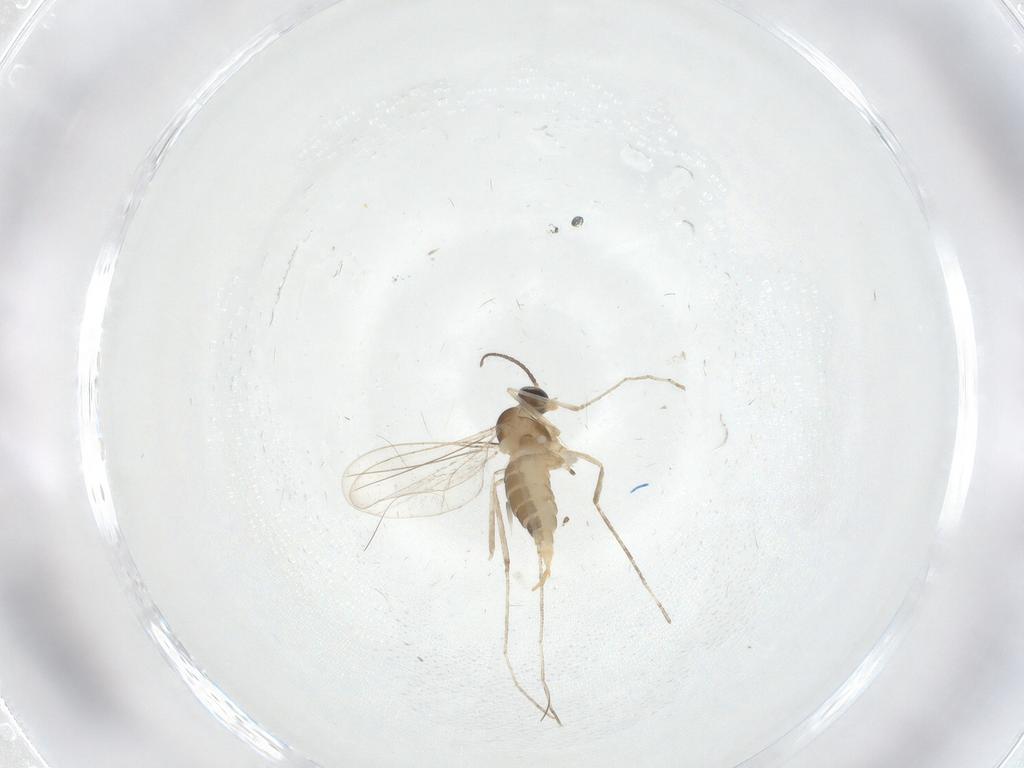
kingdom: Animalia
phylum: Arthropoda
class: Insecta
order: Diptera
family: Cecidomyiidae
